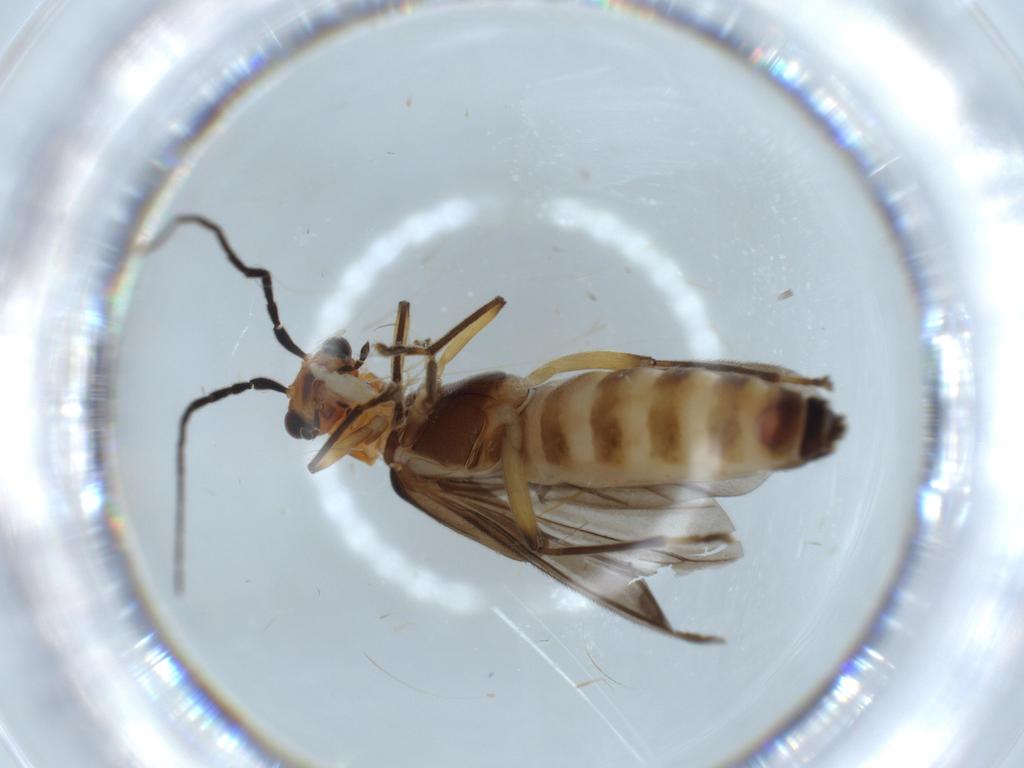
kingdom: Animalia
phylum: Arthropoda
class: Insecta
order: Coleoptera
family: Cantharidae
